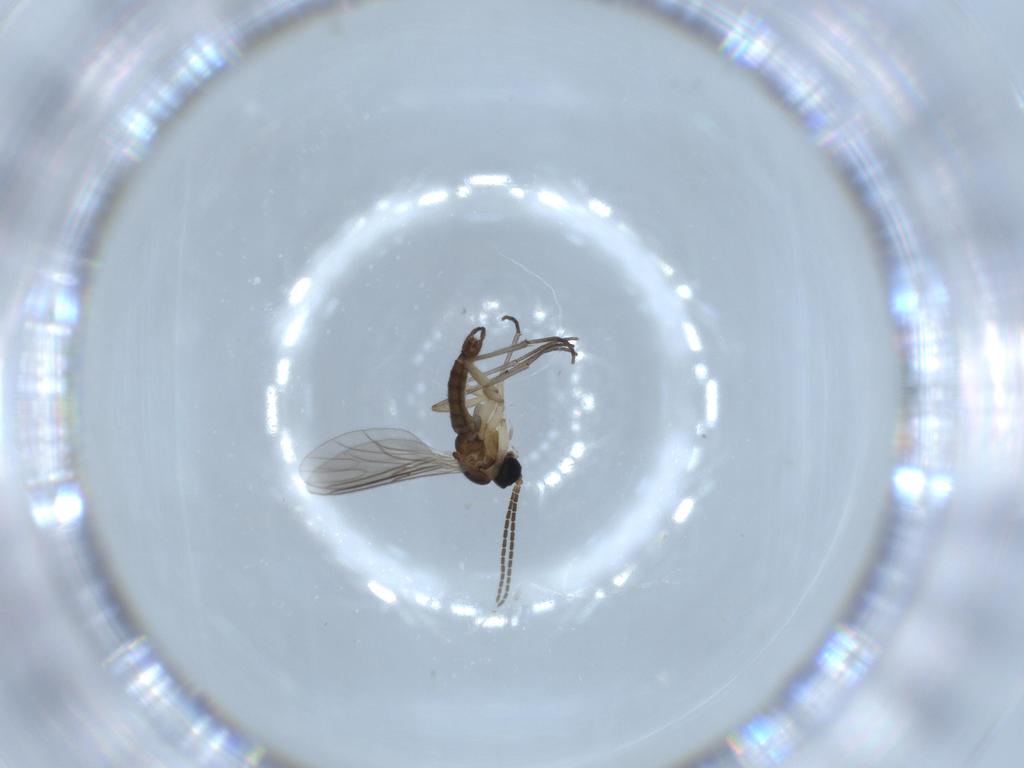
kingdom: Animalia
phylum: Arthropoda
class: Insecta
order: Diptera
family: Sciaridae
